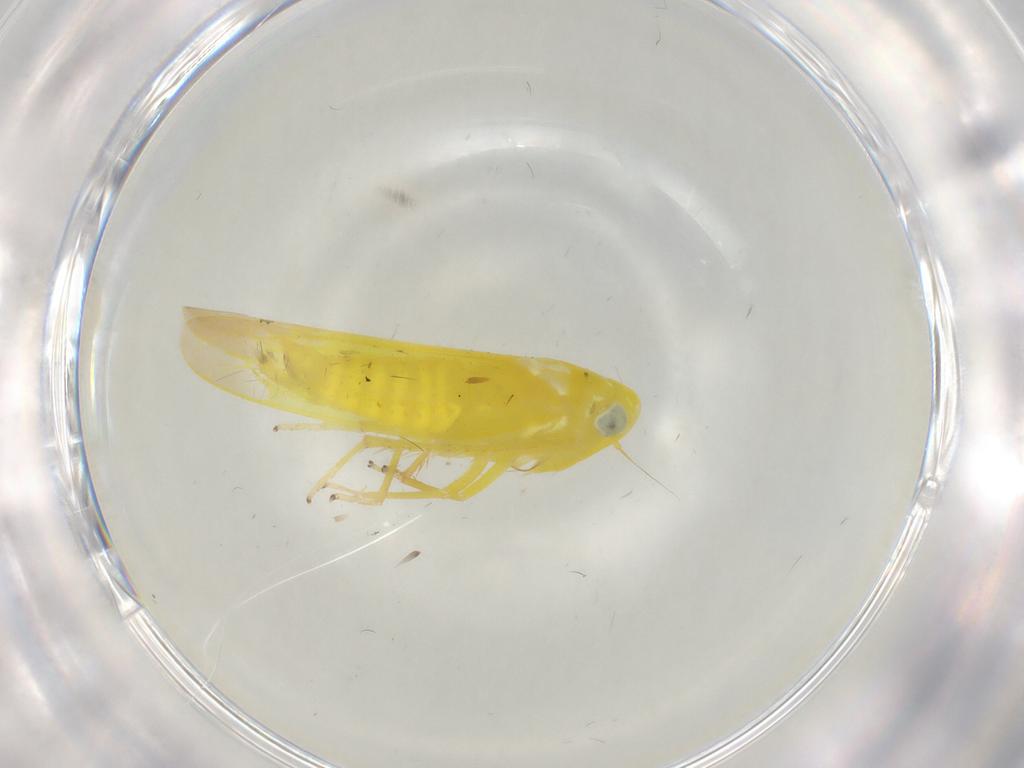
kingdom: Animalia
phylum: Arthropoda
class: Insecta
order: Hemiptera
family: Cicadellidae
